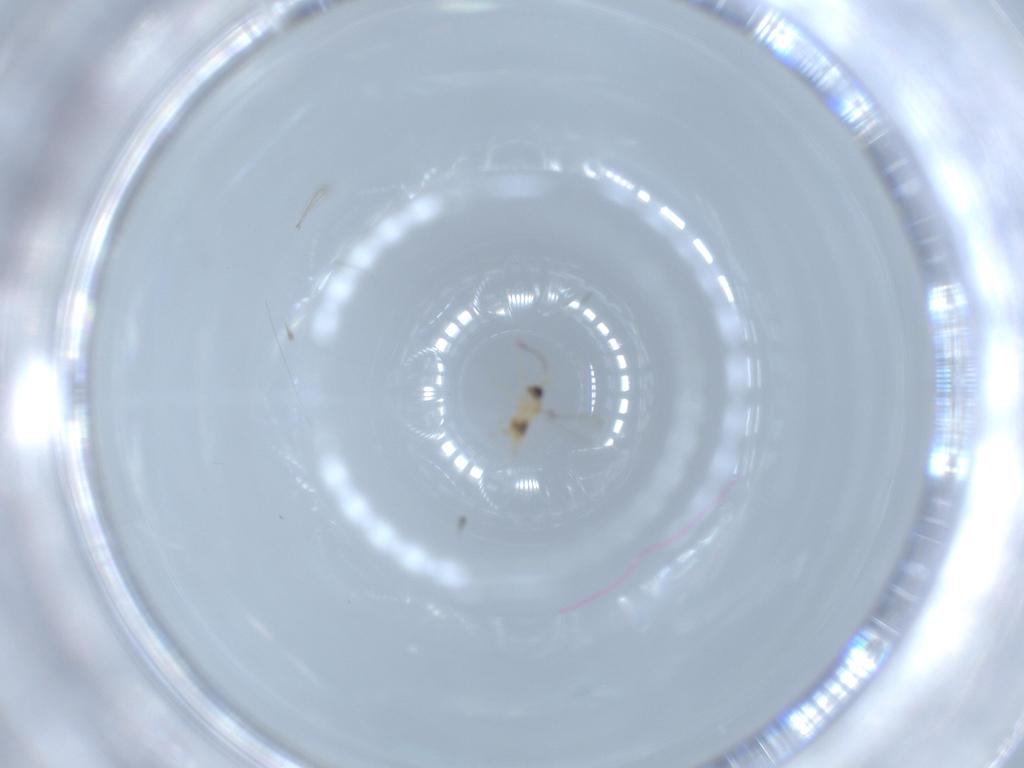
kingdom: Animalia
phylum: Arthropoda
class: Insecta
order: Hymenoptera
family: Mymaridae
